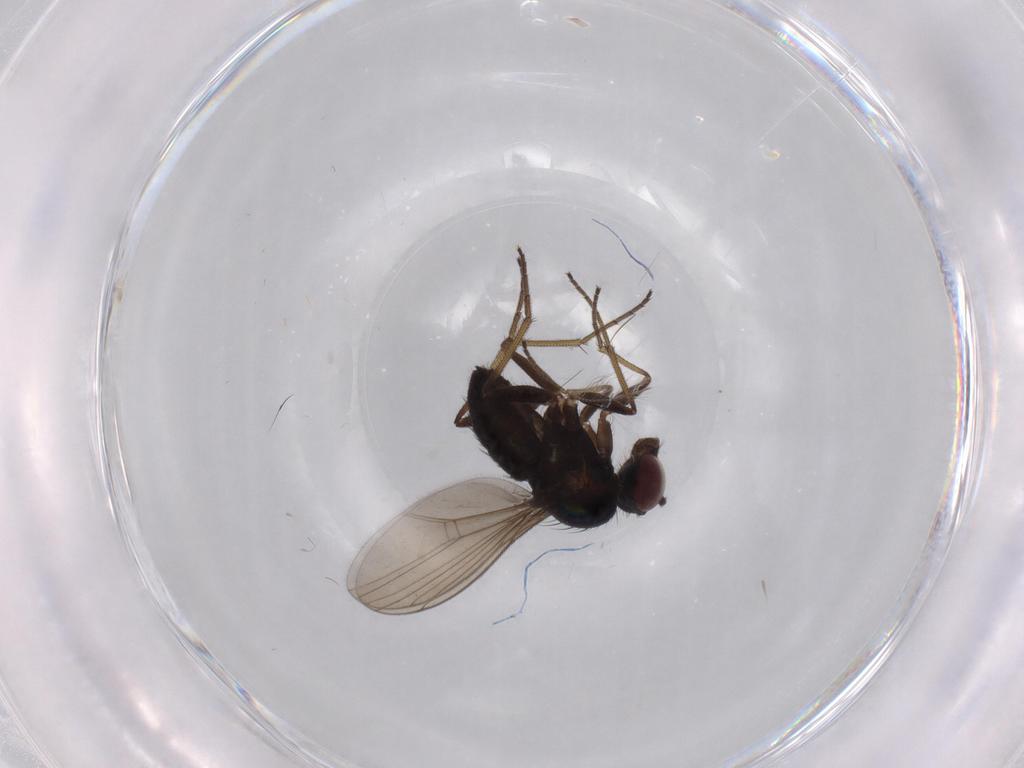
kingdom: Animalia
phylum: Arthropoda
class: Insecta
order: Diptera
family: Dolichopodidae
